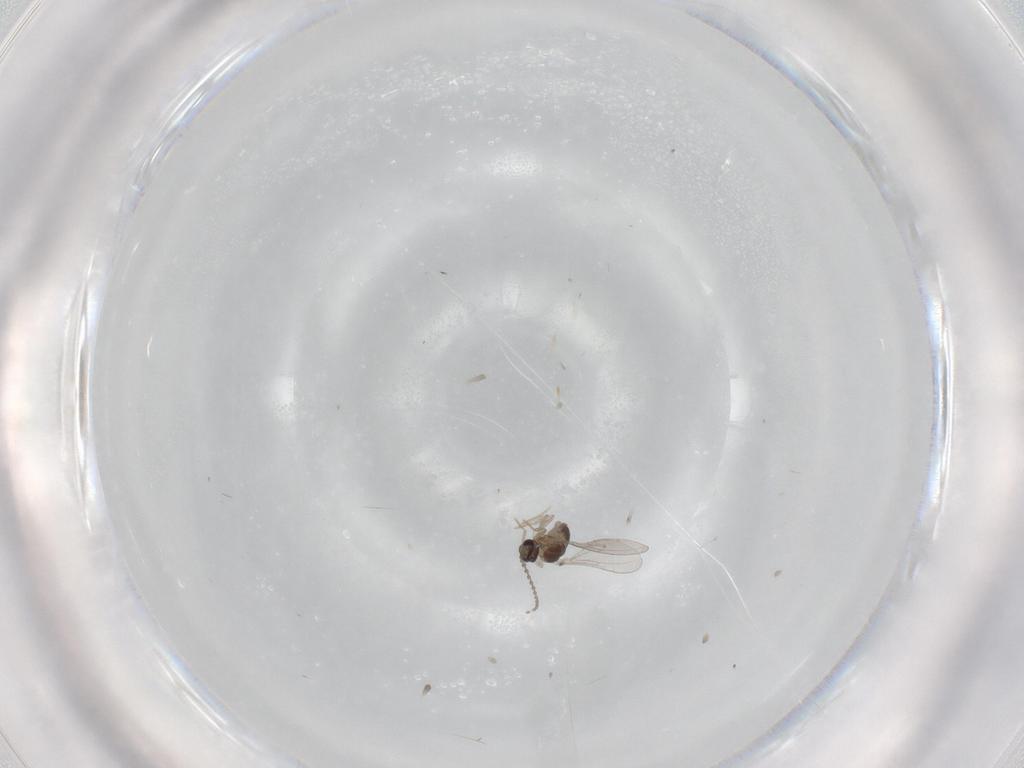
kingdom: Animalia
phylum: Arthropoda
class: Insecta
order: Diptera
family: Cecidomyiidae
